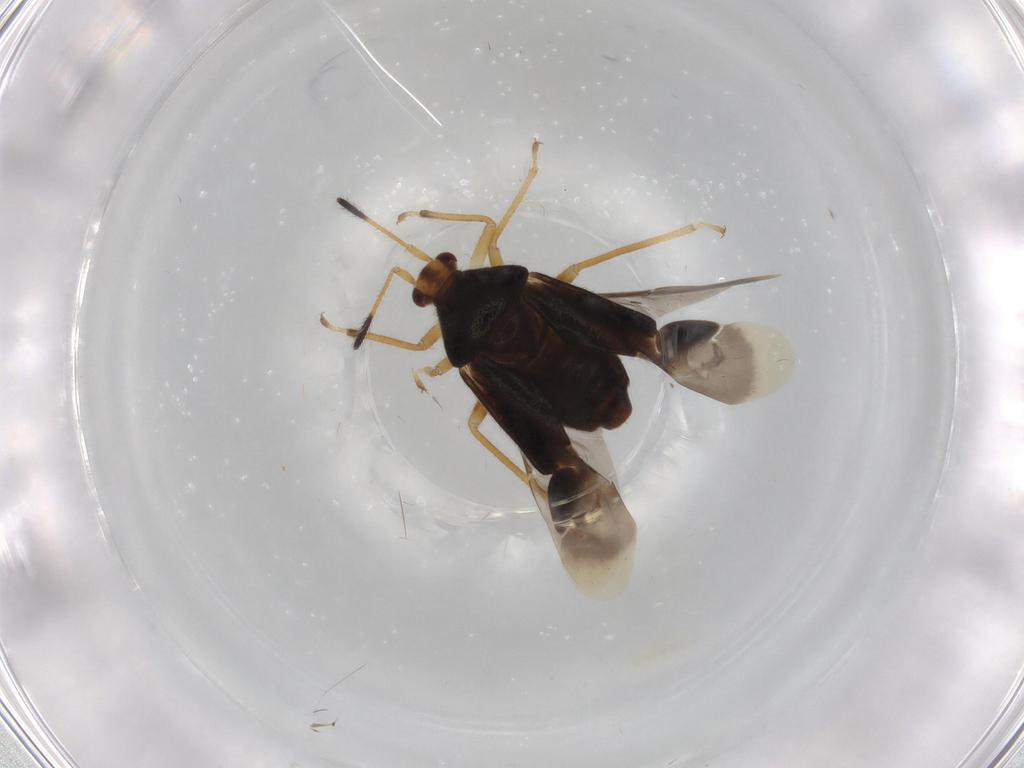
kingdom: Animalia
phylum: Arthropoda
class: Insecta
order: Hemiptera
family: Miridae
